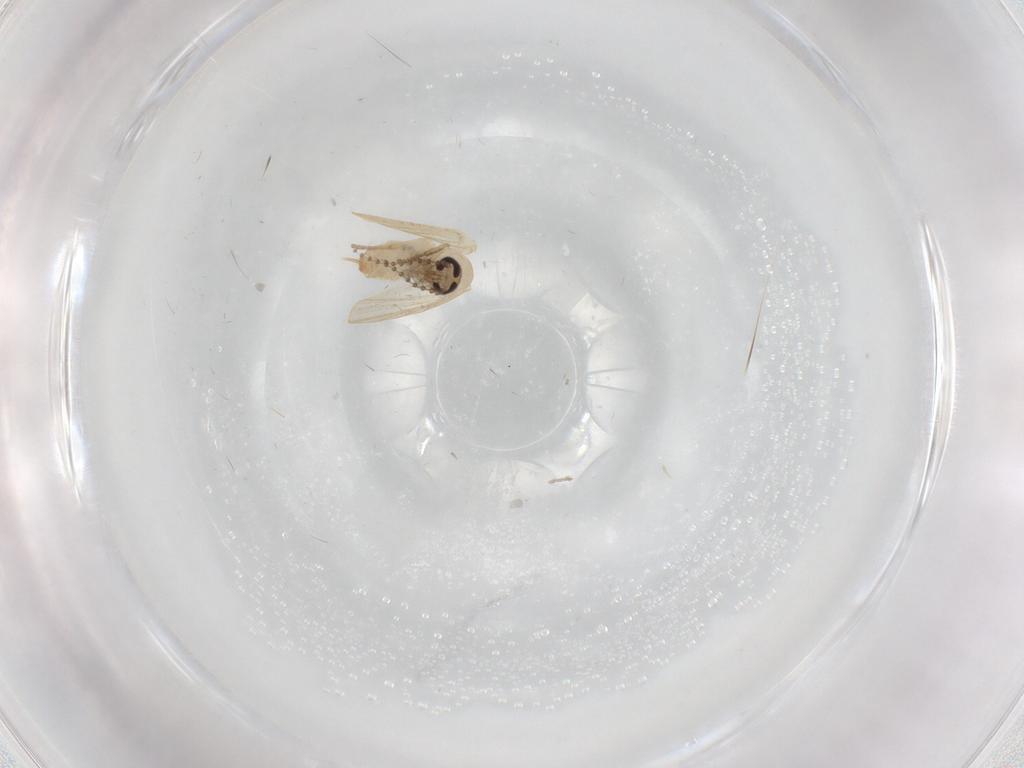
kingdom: Animalia
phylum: Arthropoda
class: Insecta
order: Diptera
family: Psychodidae
